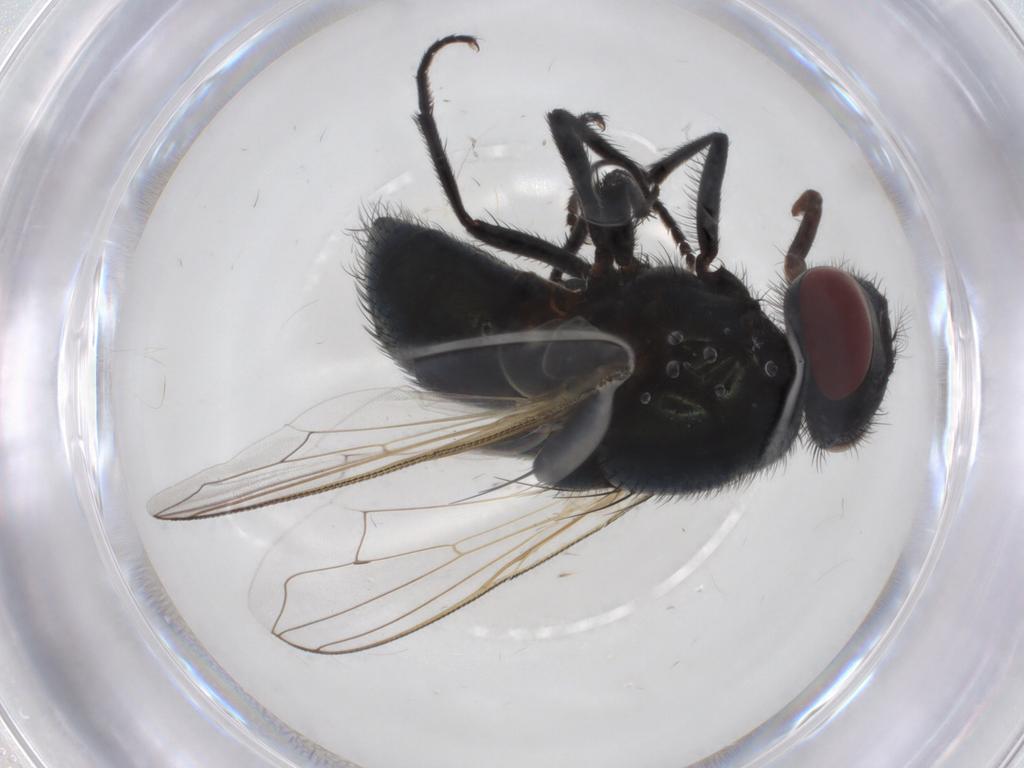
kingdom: Animalia
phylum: Arthropoda
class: Insecta
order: Diptera
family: Muscidae
